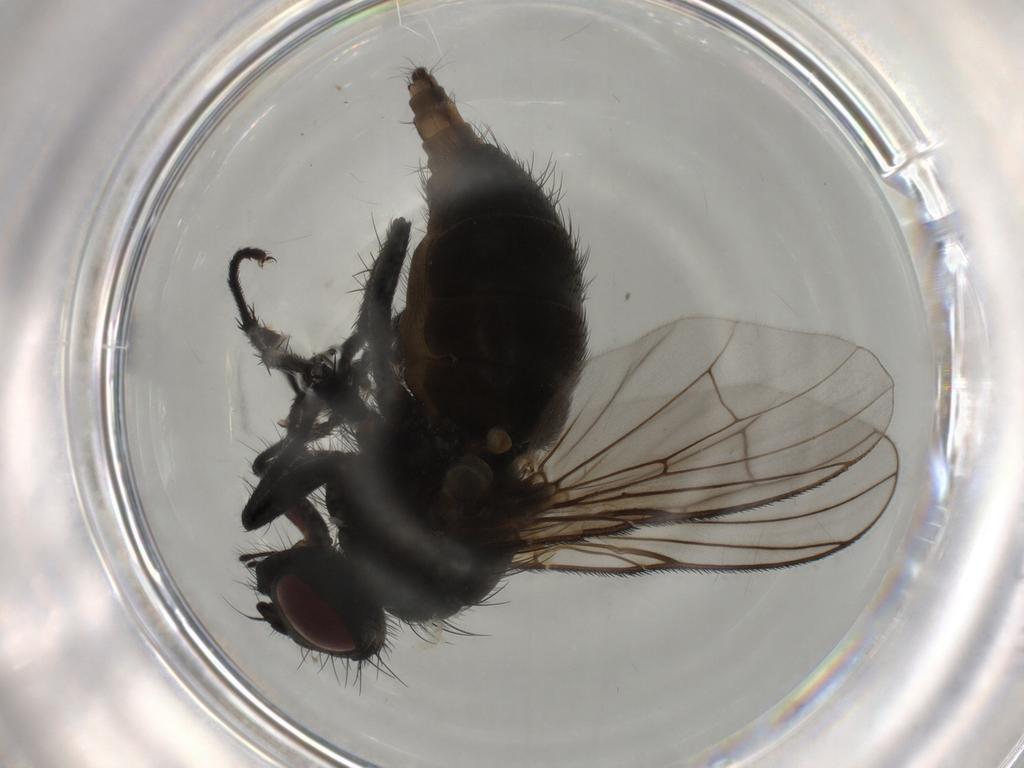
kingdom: Animalia
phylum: Arthropoda
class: Insecta
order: Diptera
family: Muscidae
